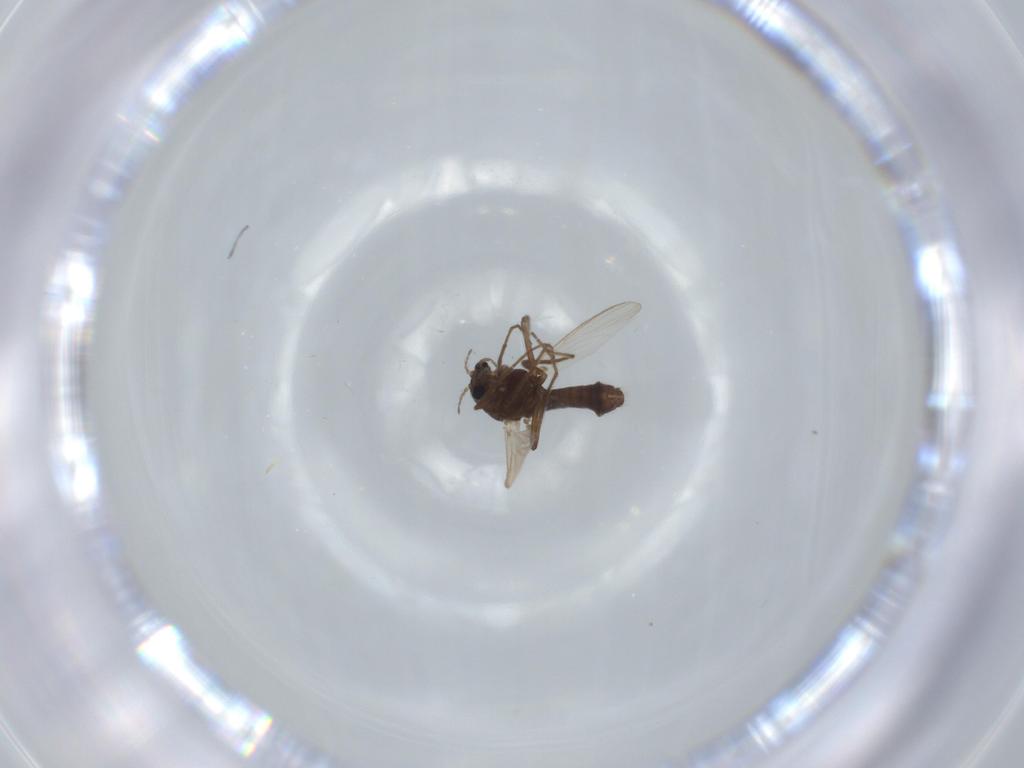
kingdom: Animalia
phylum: Arthropoda
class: Insecta
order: Diptera
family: Chironomidae
